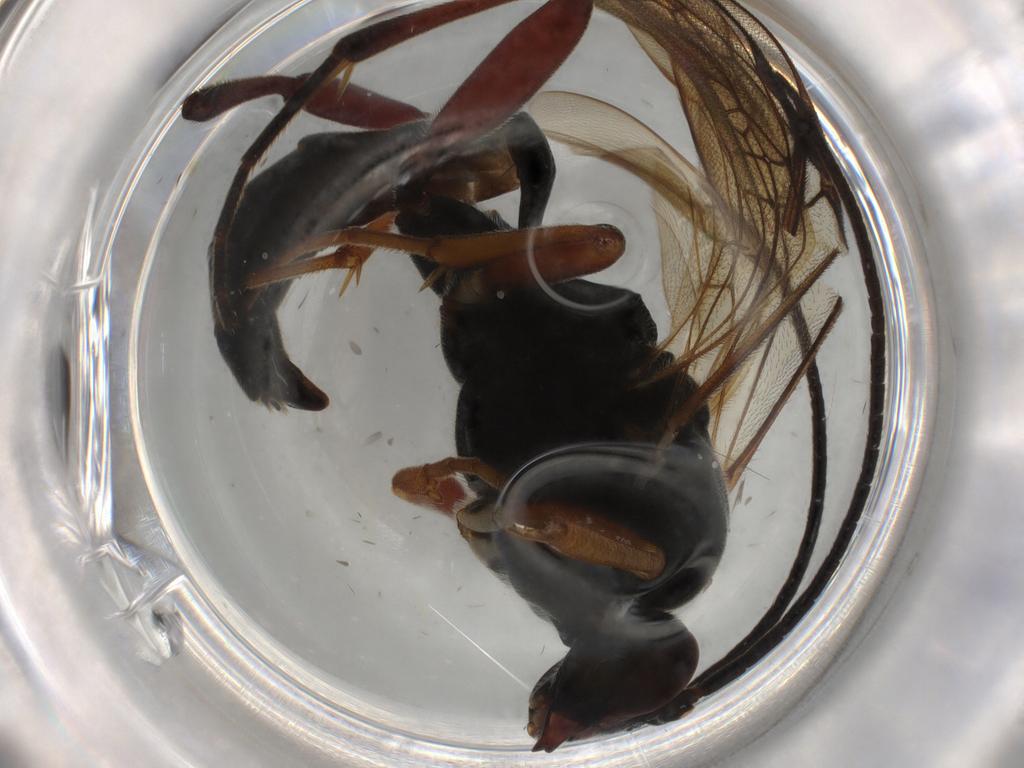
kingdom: Animalia
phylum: Arthropoda
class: Insecta
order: Hymenoptera
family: Ichneumonidae
